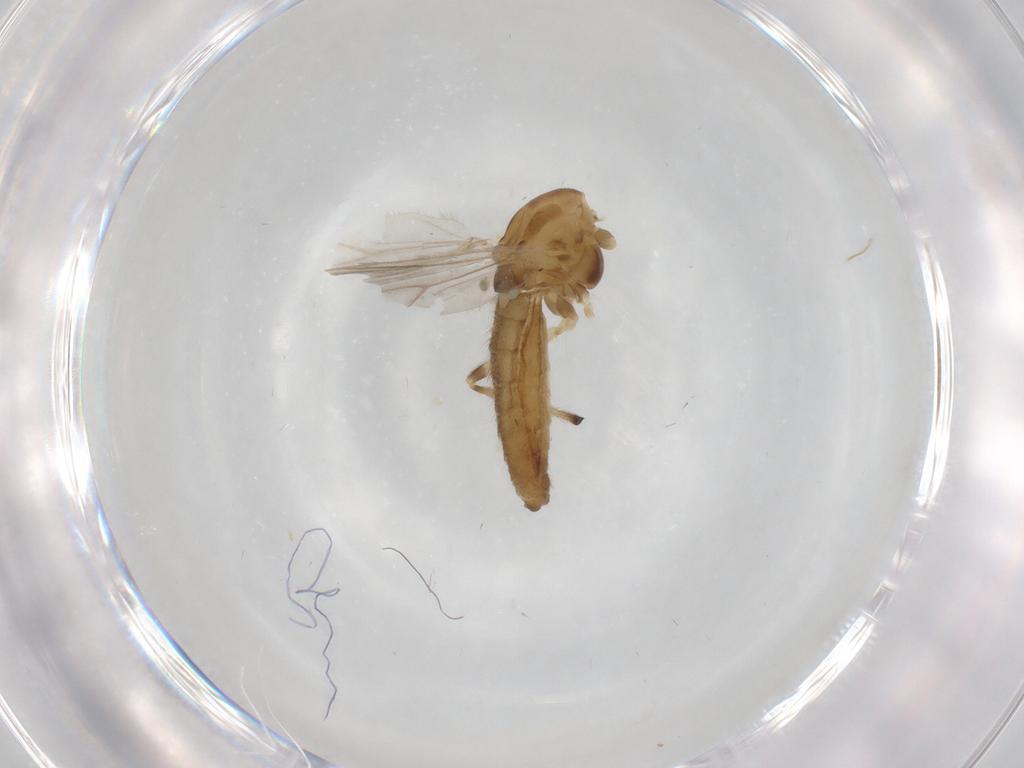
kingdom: Animalia
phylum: Arthropoda
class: Insecta
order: Diptera
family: Chironomidae
